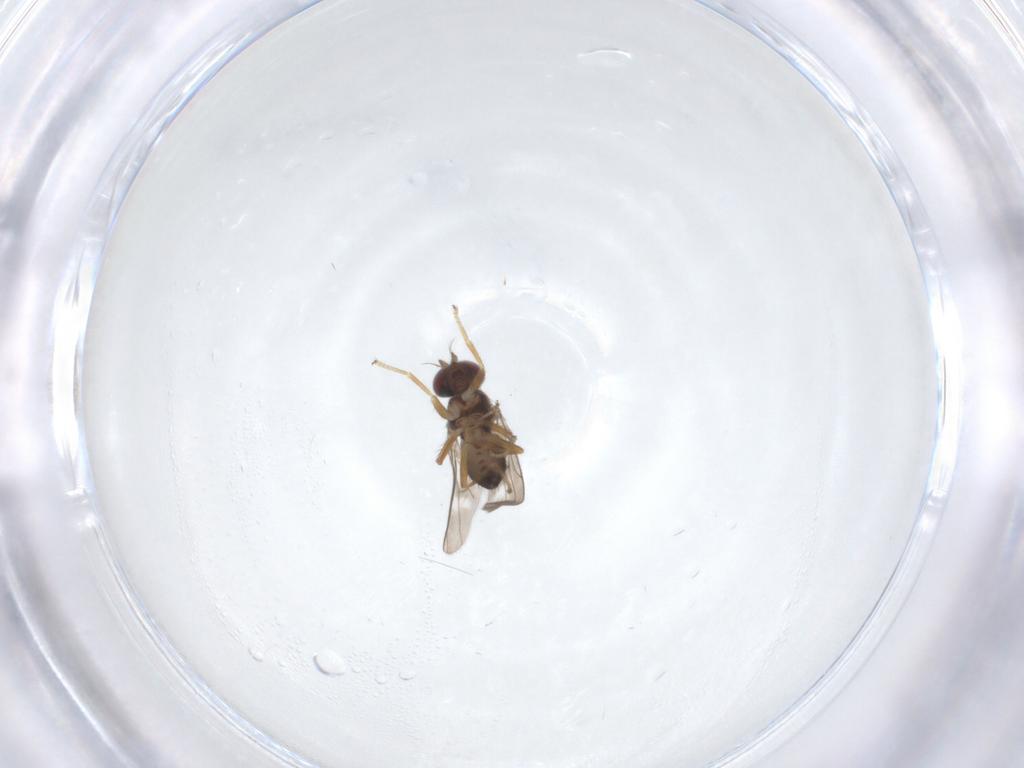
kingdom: Animalia
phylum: Arthropoda
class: Insecta
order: Diptera
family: Ephydridae
